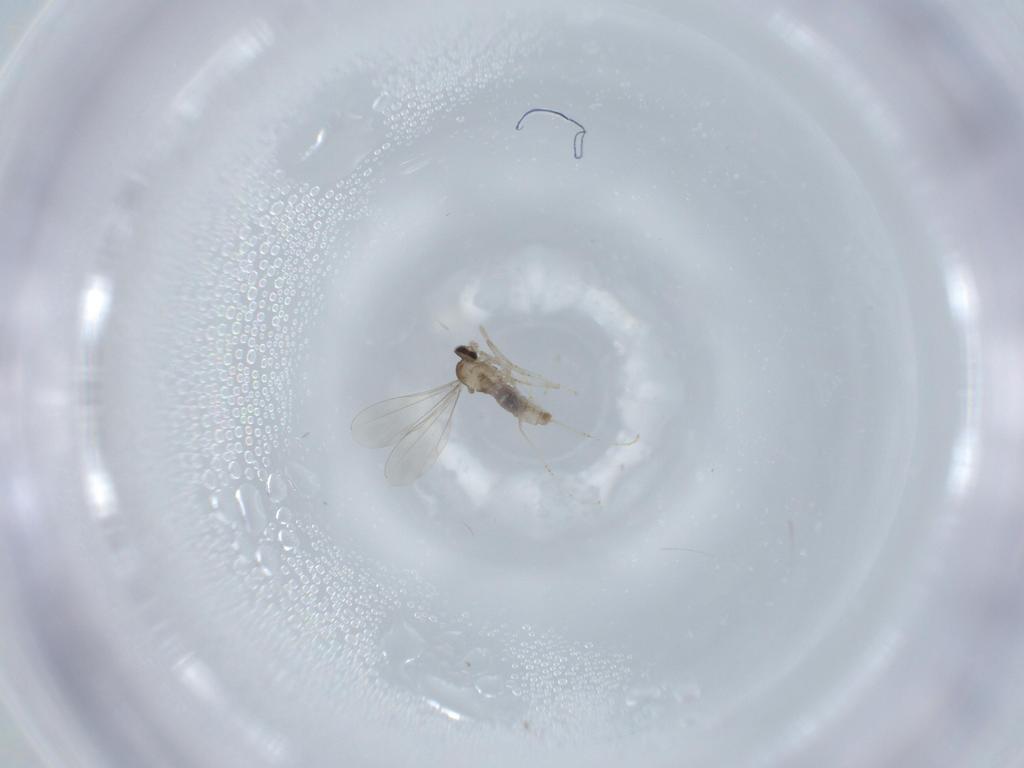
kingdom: Animalia
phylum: Arthropoda
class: Insecta
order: Diptera
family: Cecidomyiidae
